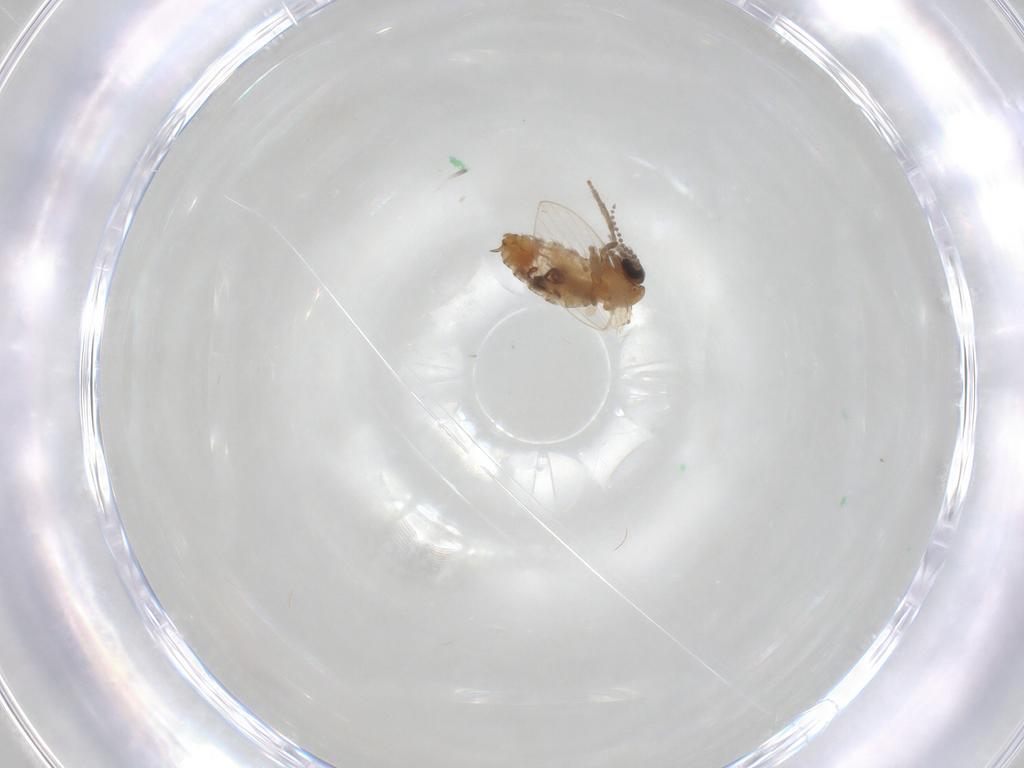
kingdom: Animalia
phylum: Arthropoda
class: Insecta
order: Diptera
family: Psychodidae
